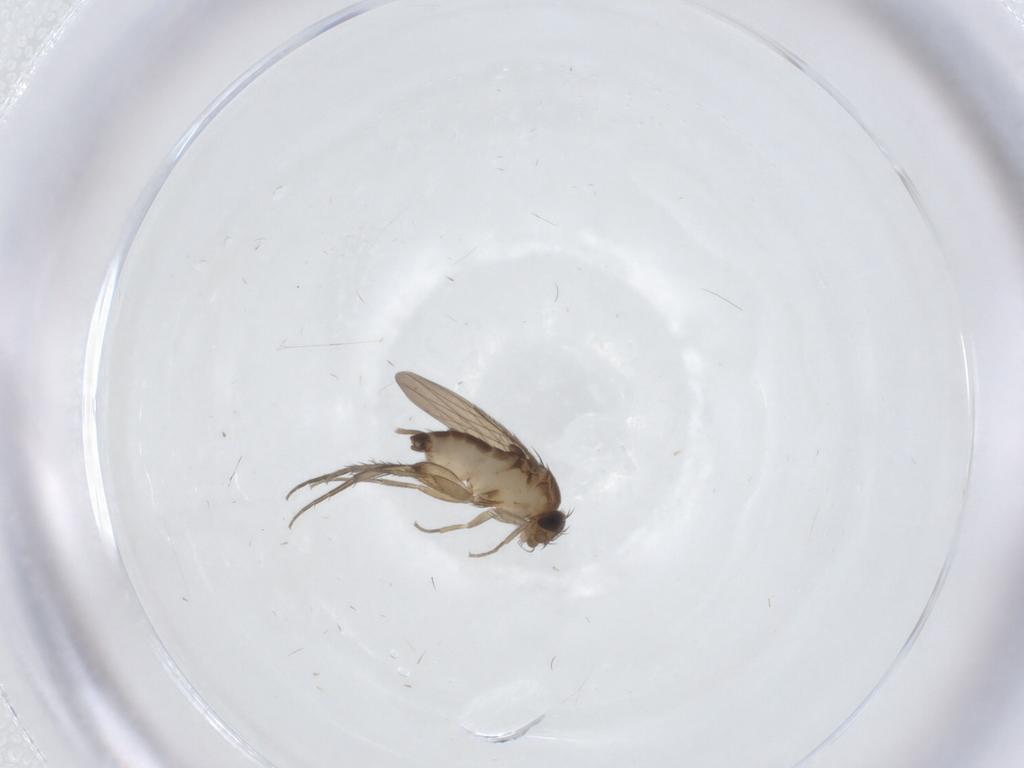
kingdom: Animalia
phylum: Arthropoda
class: Insecta
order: Diptera
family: Phoridae
